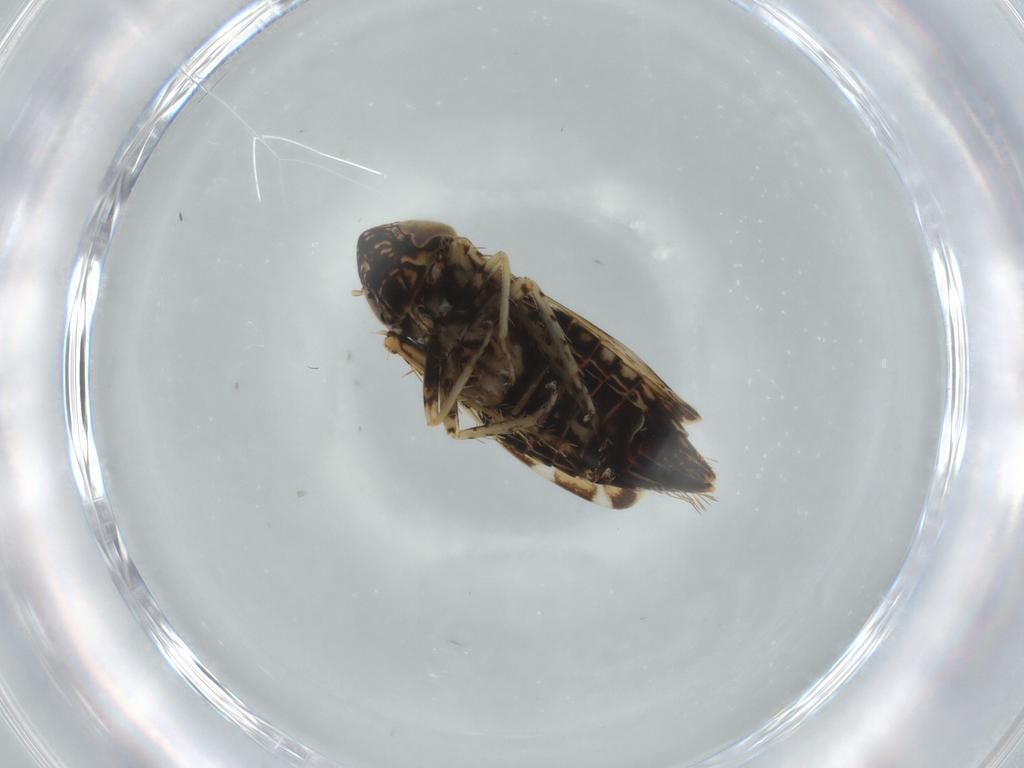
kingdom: Animalia
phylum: Arthropoda
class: Insecta
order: Hemiptera
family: Cicadellidae
